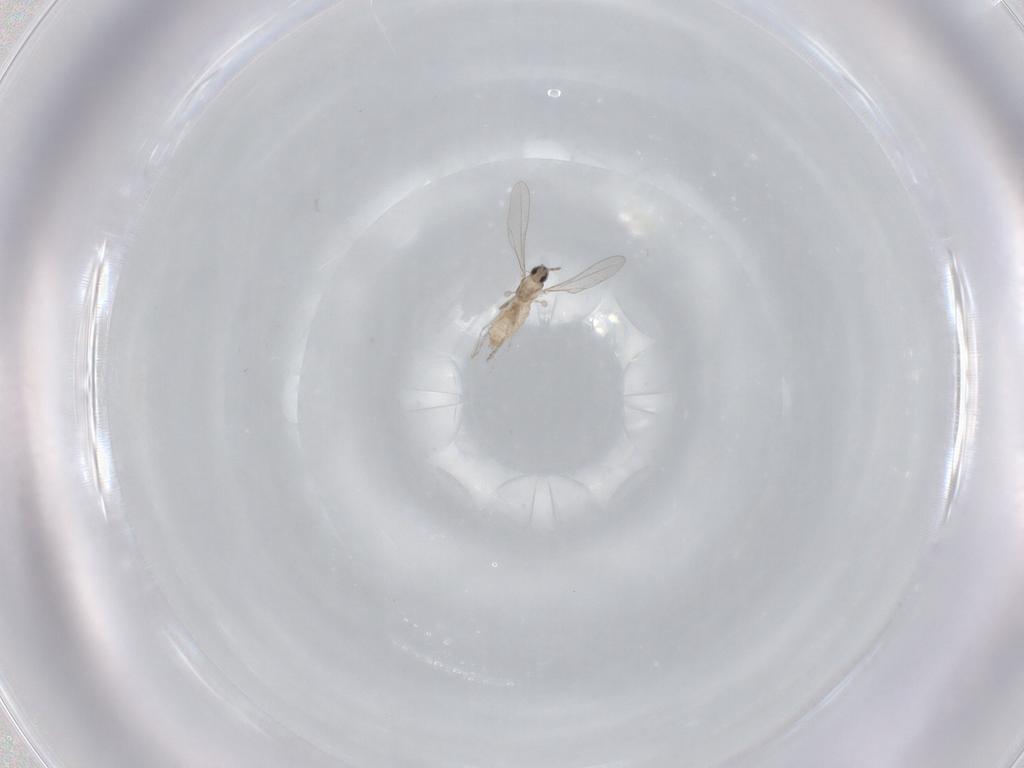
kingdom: Animalia
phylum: Arthropoda
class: Insecta
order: Diptera
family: Cecidomyiidae
